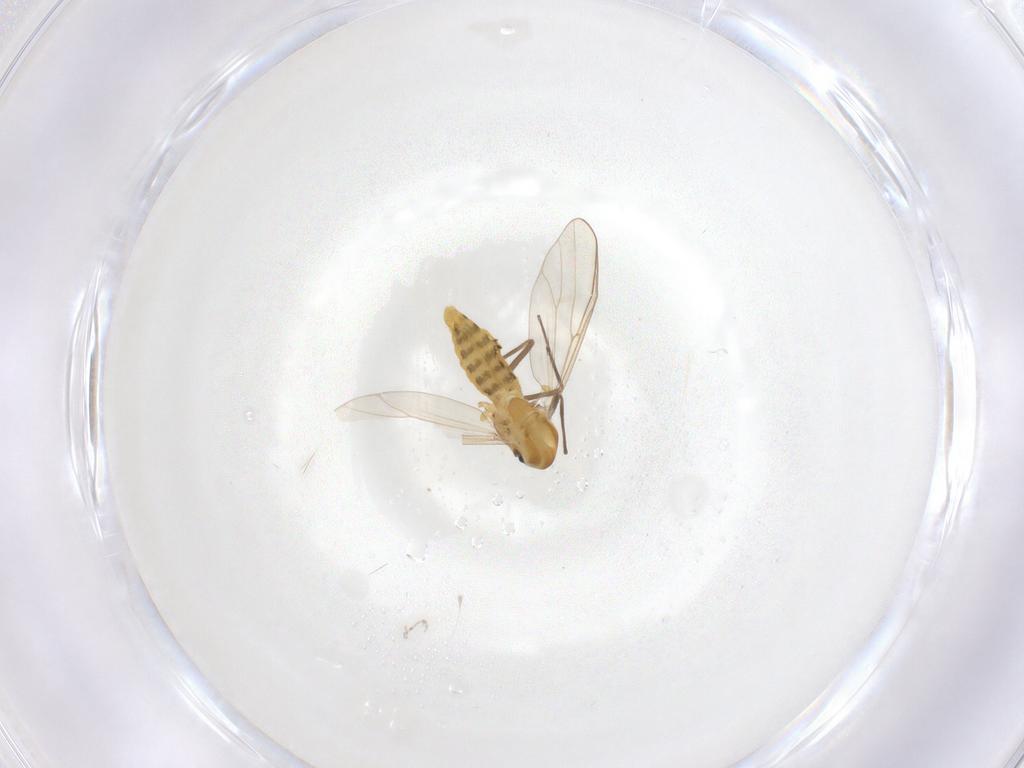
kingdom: Animalia
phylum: Arthropoda
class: Insecta
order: Diptera
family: Chironomidae
